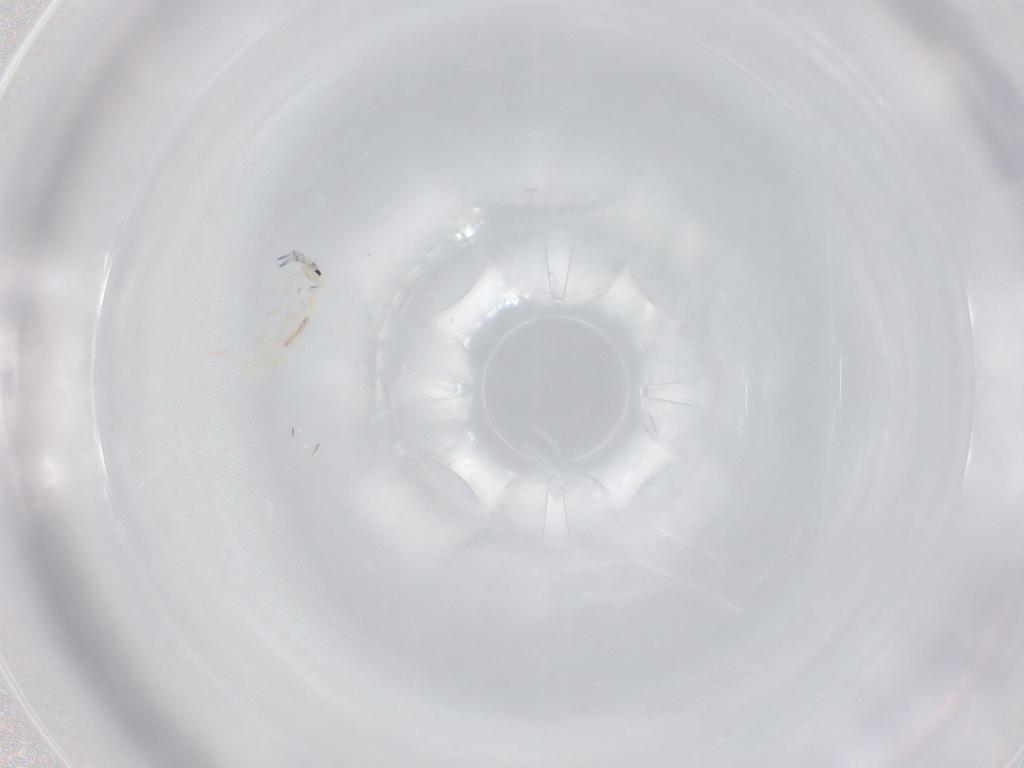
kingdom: Animalia
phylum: Arthropoda
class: Collembola
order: Entomobryomorpha
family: Entomobryidae
